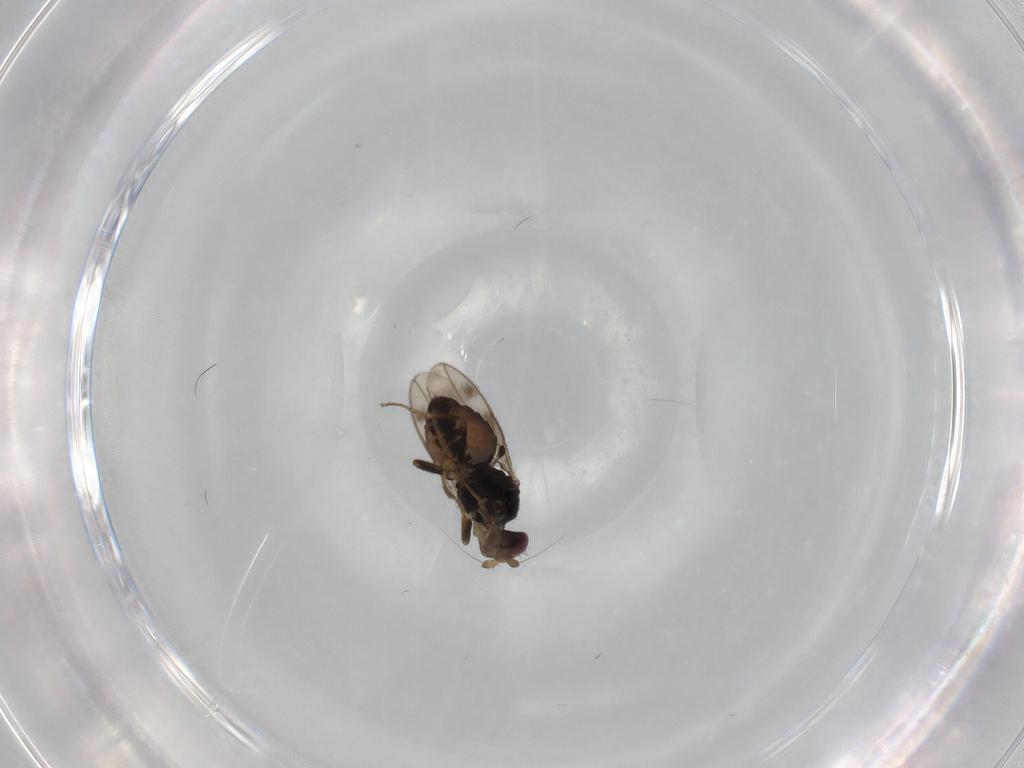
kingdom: Animalia
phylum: Arthropoda
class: Insecta
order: Diptera
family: Sphaeroceridae
